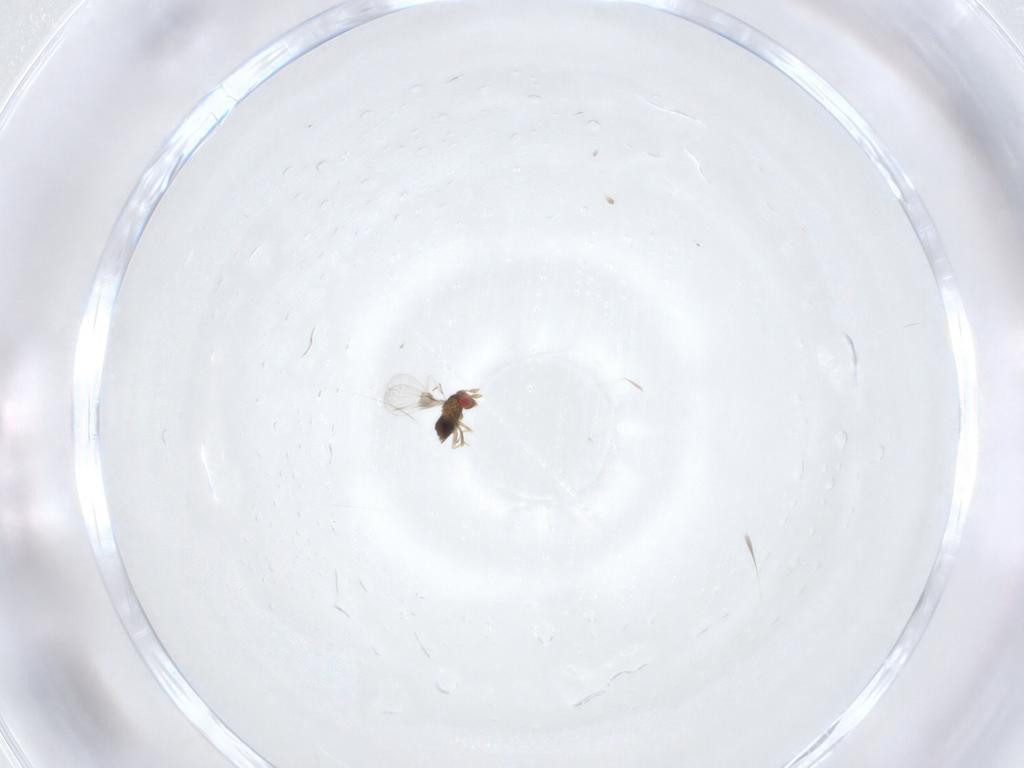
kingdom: Animalia
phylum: Arthropoda
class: Insecta
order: Hymenoptera
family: Trichogrammatidae
